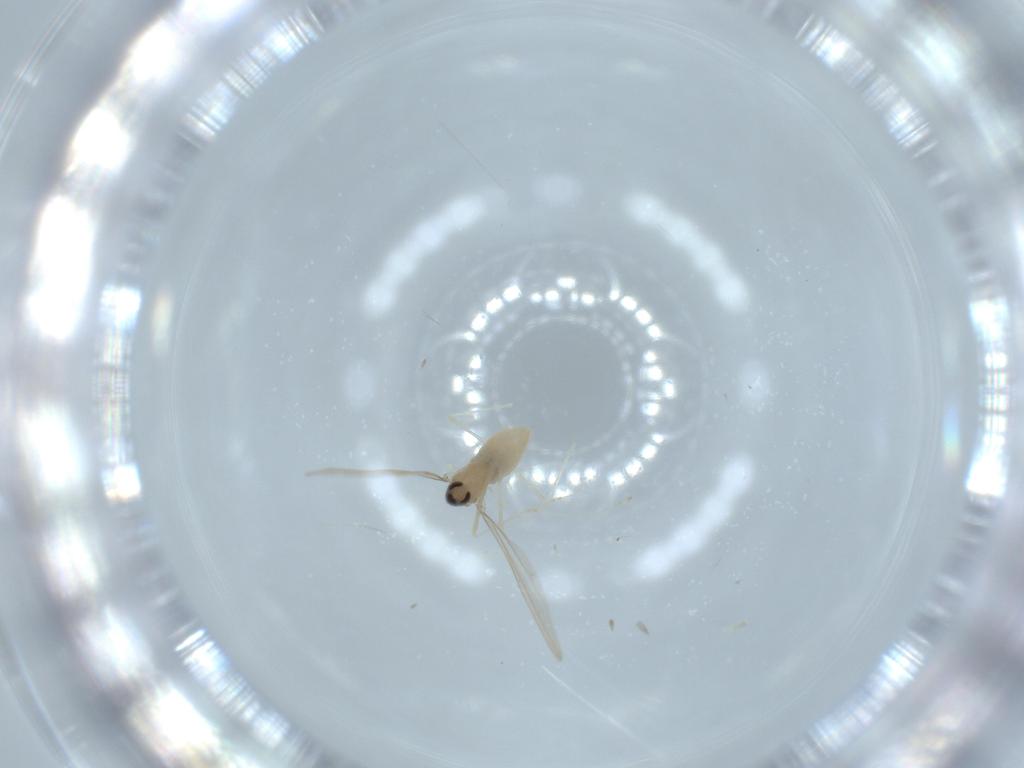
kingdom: Animalia
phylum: Arthropoda
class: Insecta
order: Diptera
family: Cecidomyiidae
